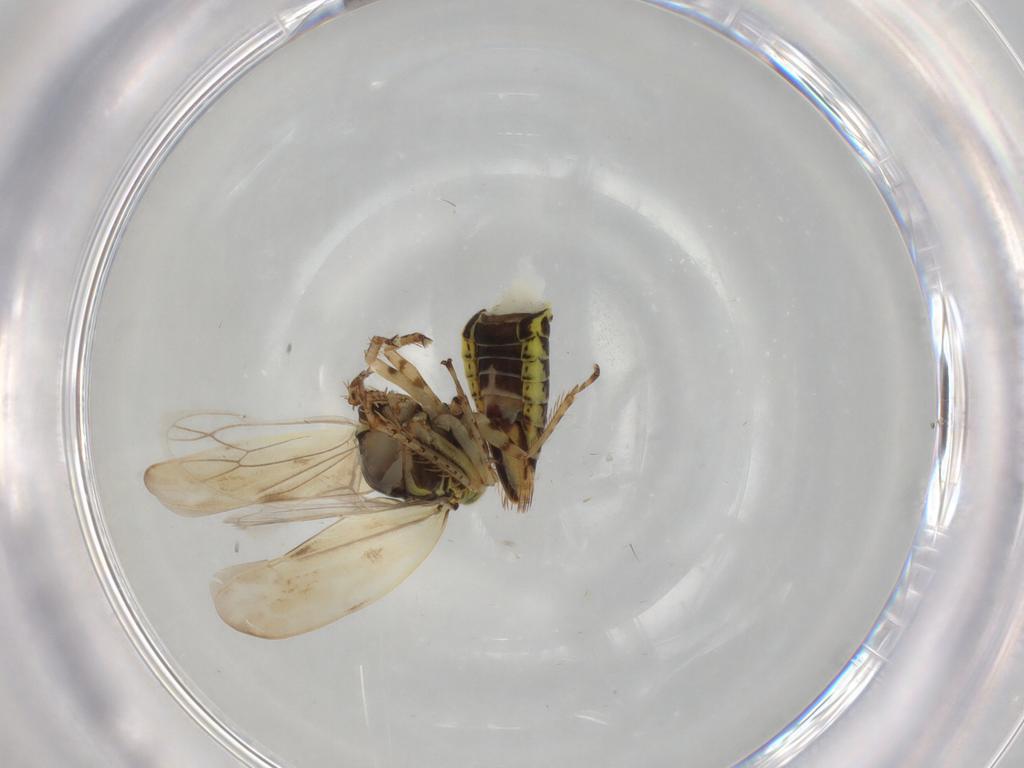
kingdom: Animalia
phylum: Arthropoda
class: Insecta
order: Hemiptera
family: Cicadellidae
